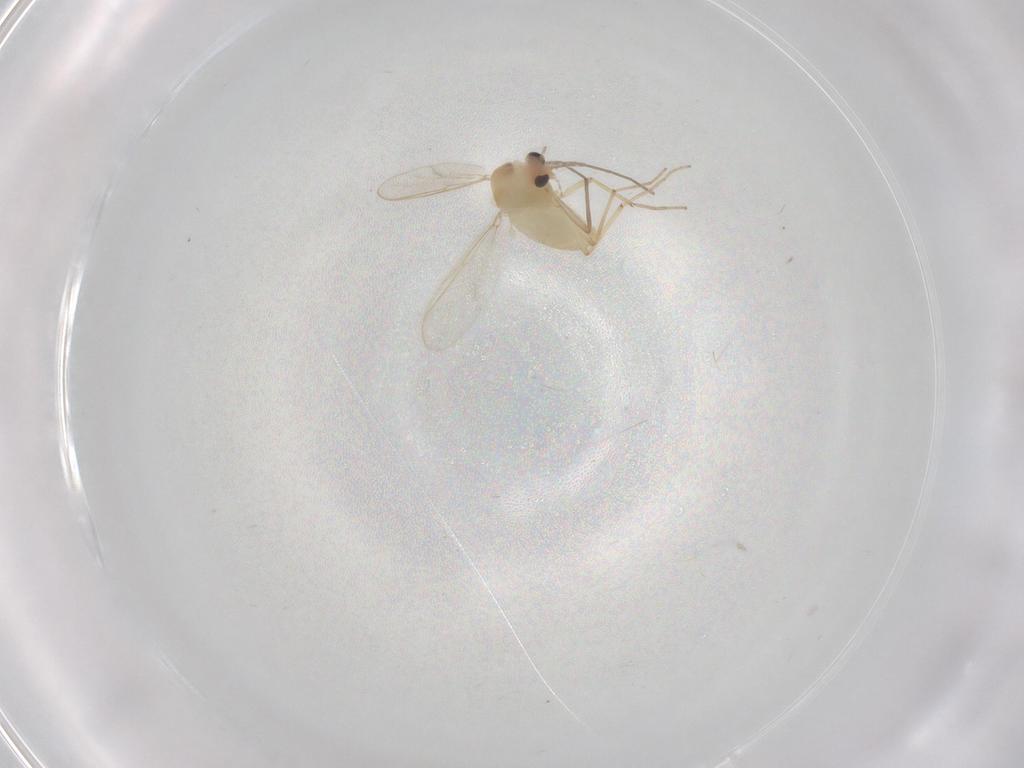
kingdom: Animalia
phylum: Arthropoda
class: Insecta
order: Diptera
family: Chironomidae
